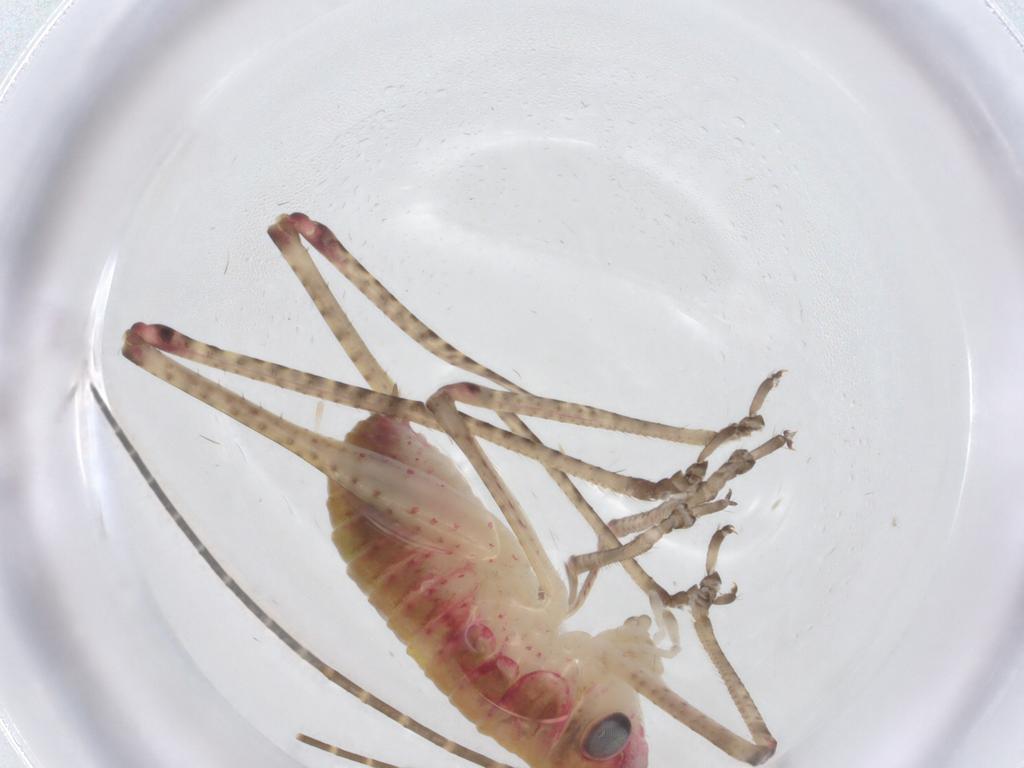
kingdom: Animalia
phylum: Arthropoda
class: Insecta
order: Orthoptera
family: Tettigoniidae
